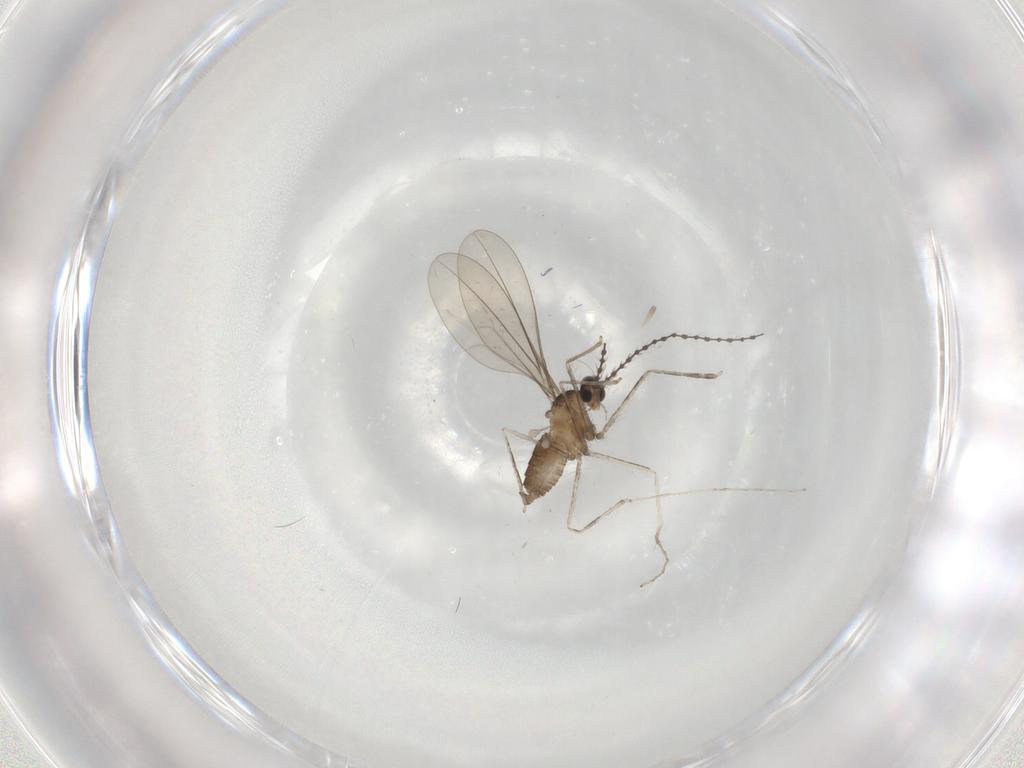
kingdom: Animalia
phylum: Arthropoda
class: Insecta
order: Diptera
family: Cecidomyiidae
